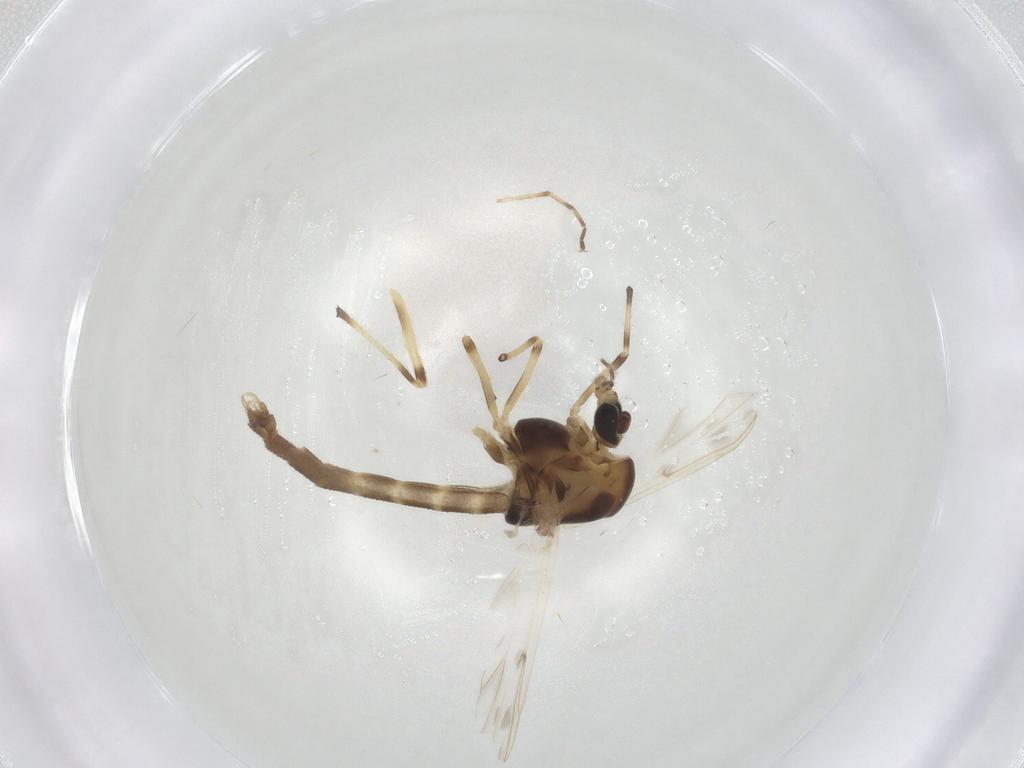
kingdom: Animalia
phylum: Arthropoda
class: Insecta
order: Diptera
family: Chironomidae
